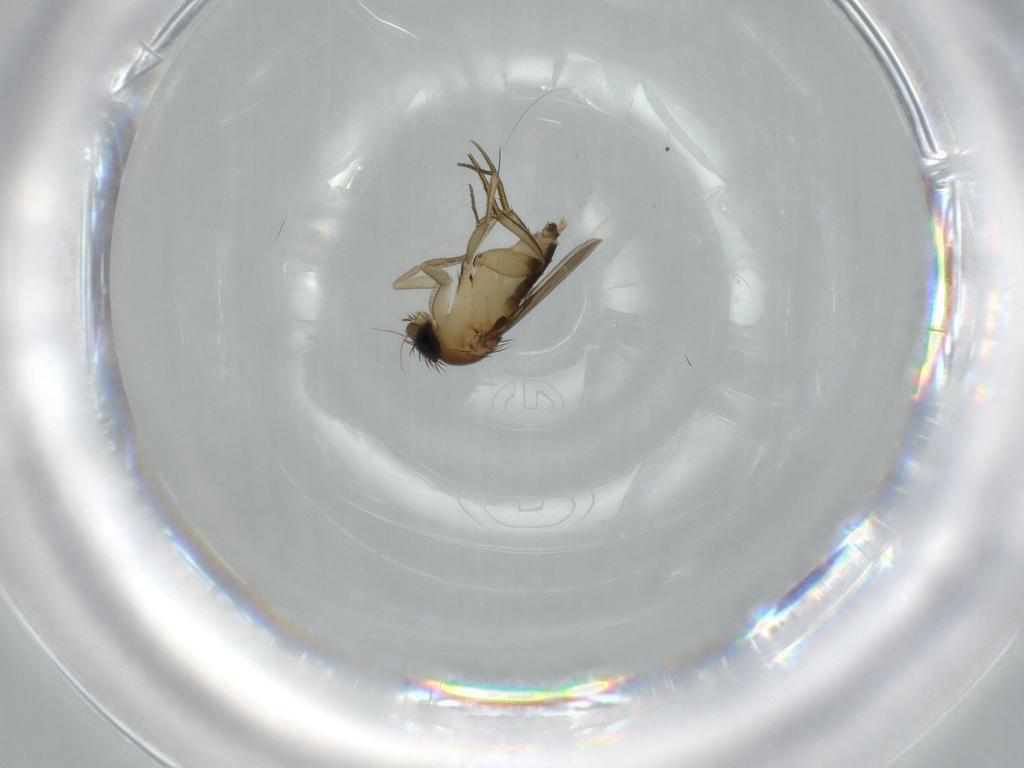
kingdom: Animalia
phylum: Arthropoda
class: Insecta
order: Diptera
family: Phoridae
